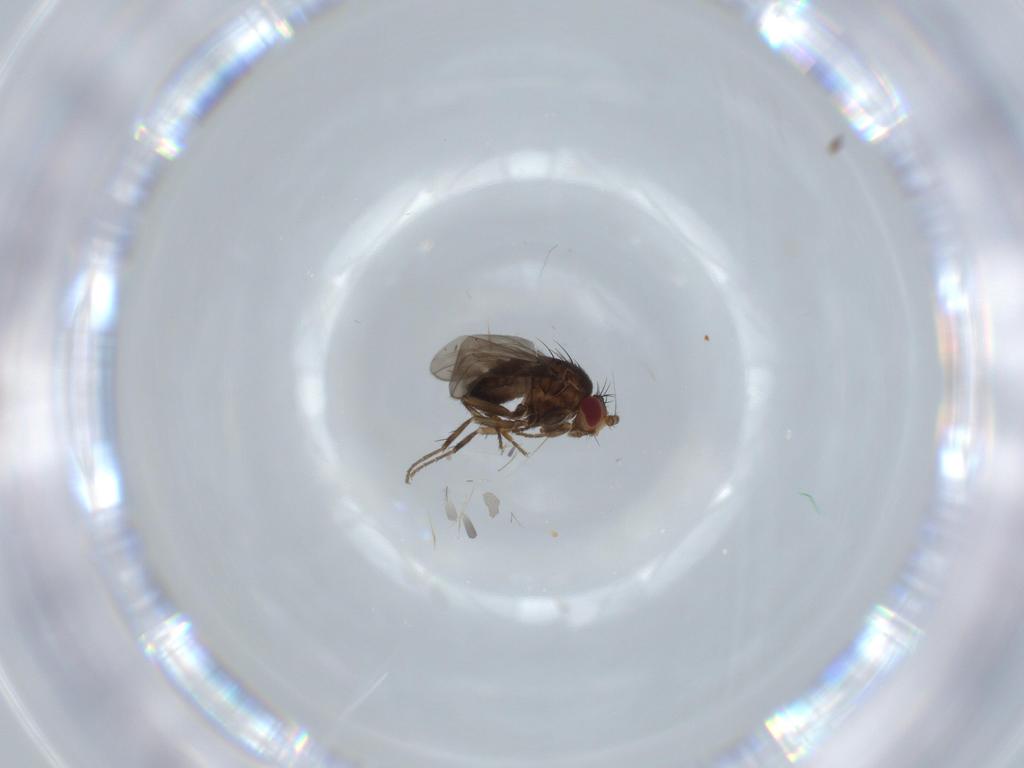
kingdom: Animalia
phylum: Arthropoda
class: Insecta
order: Diptera
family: Sphaeroceridae
